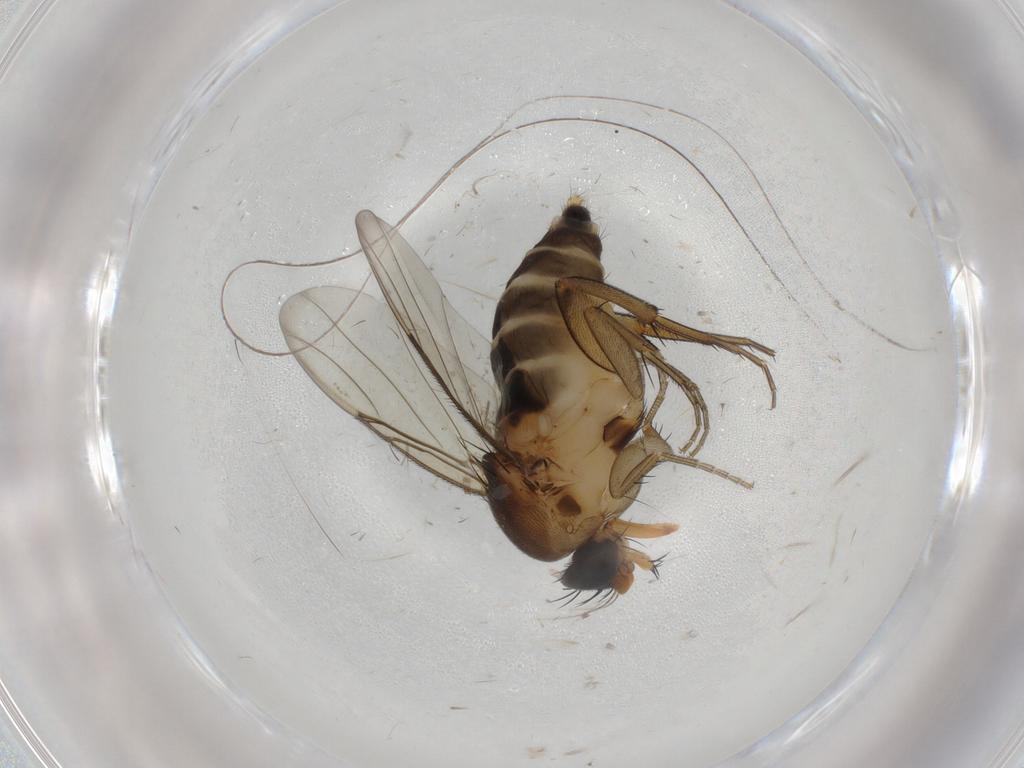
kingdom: Animalia
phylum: Arthropoda
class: Insecta
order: Diptera
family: Phoridae
